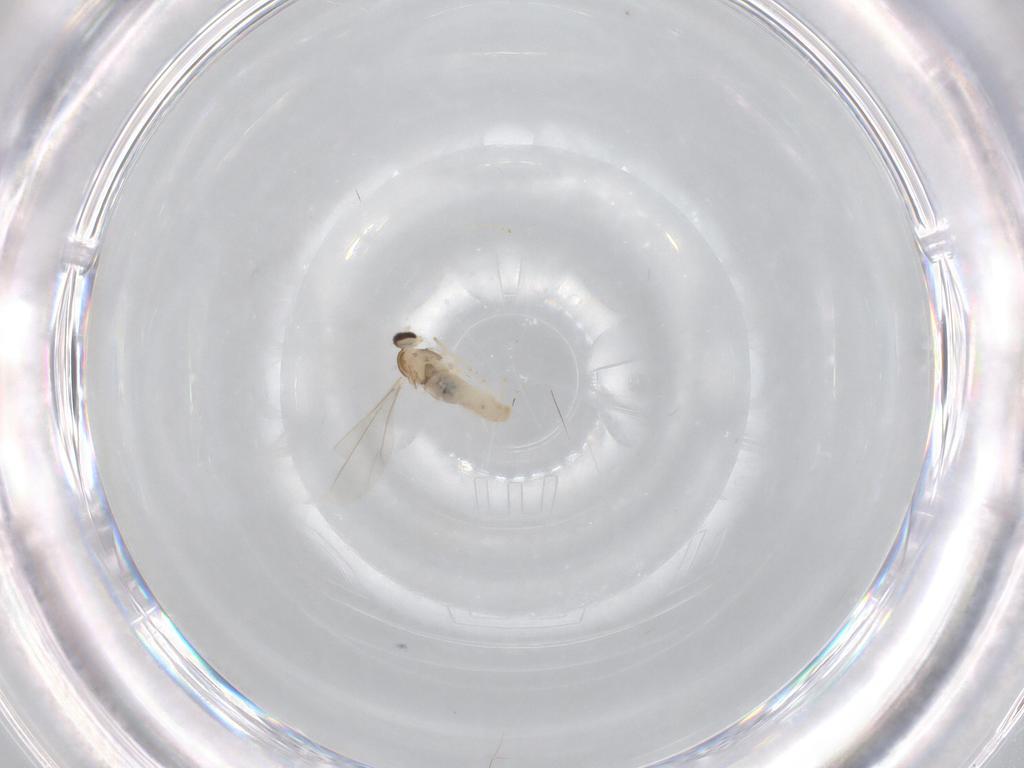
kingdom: Animalia
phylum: Arthropoda
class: Insecta
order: Diptera
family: Cecidomyiidae
